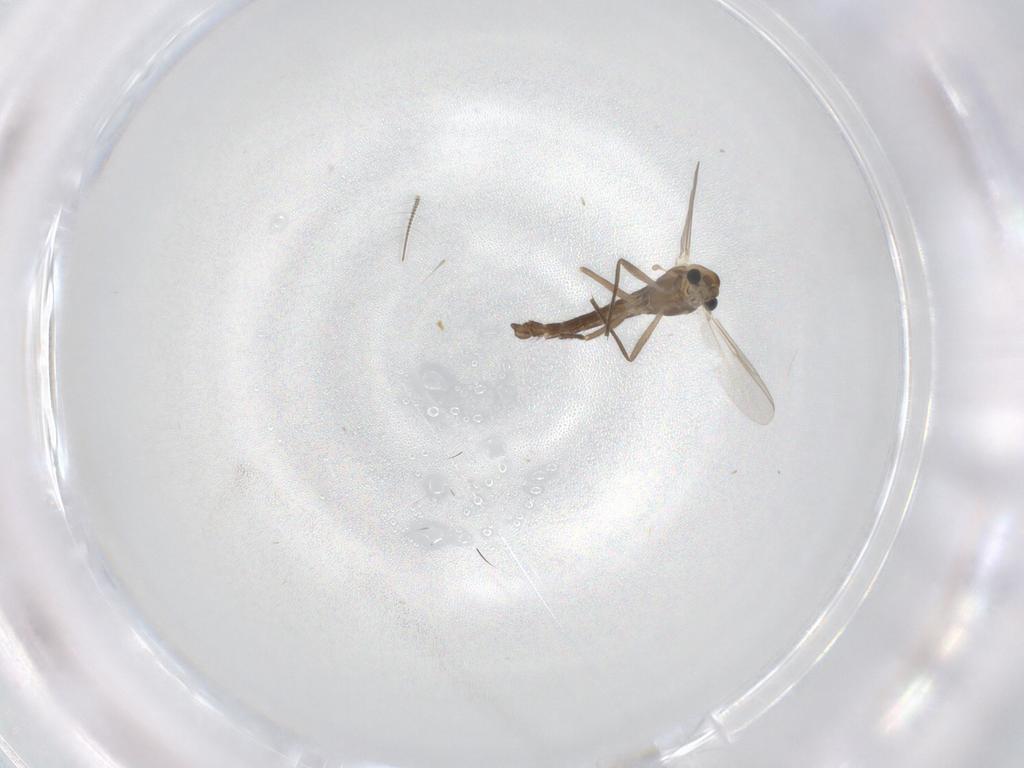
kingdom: Animalia
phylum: Arthropoda
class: Insecta
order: Diptera
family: Chironomidae
